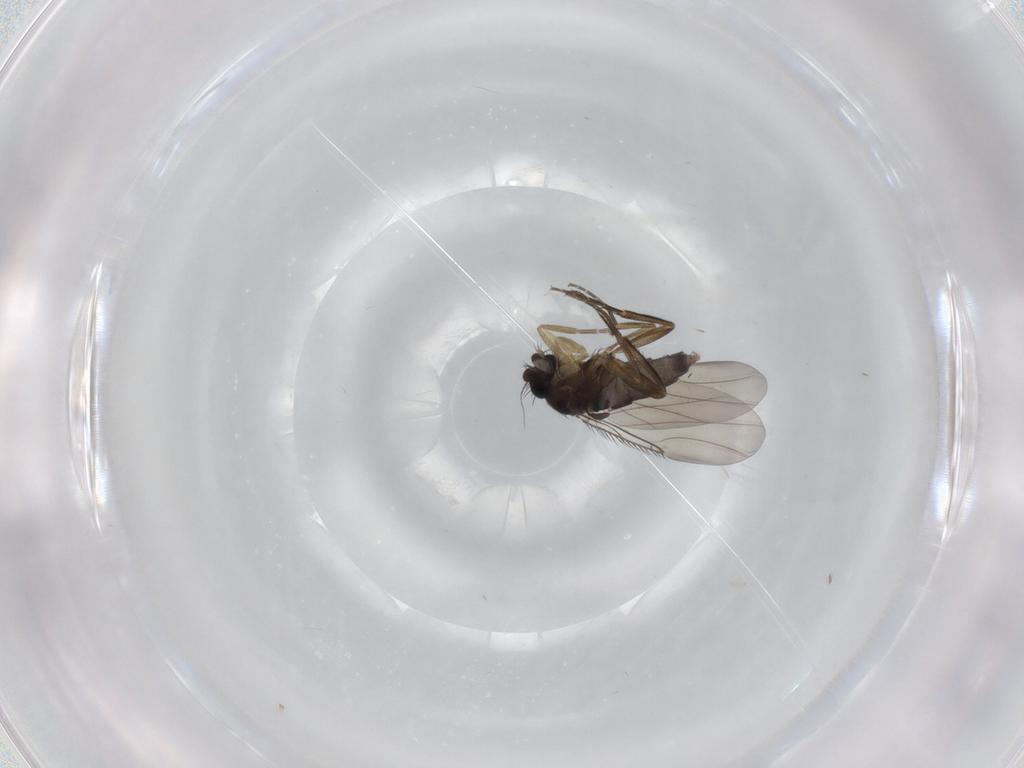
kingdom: Animalia
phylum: Arthropoda
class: Insecta
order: Diptera
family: Phoridae
